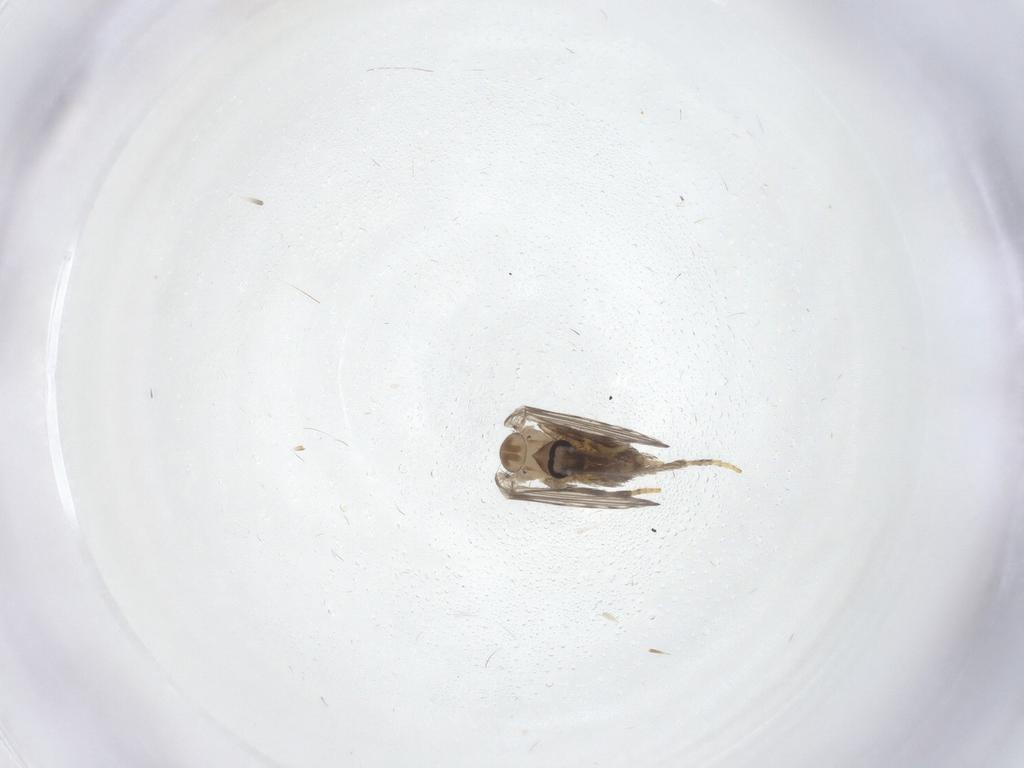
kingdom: Animalia
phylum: Arthropoda
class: Insecta
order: Diptera
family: Psychodidae
